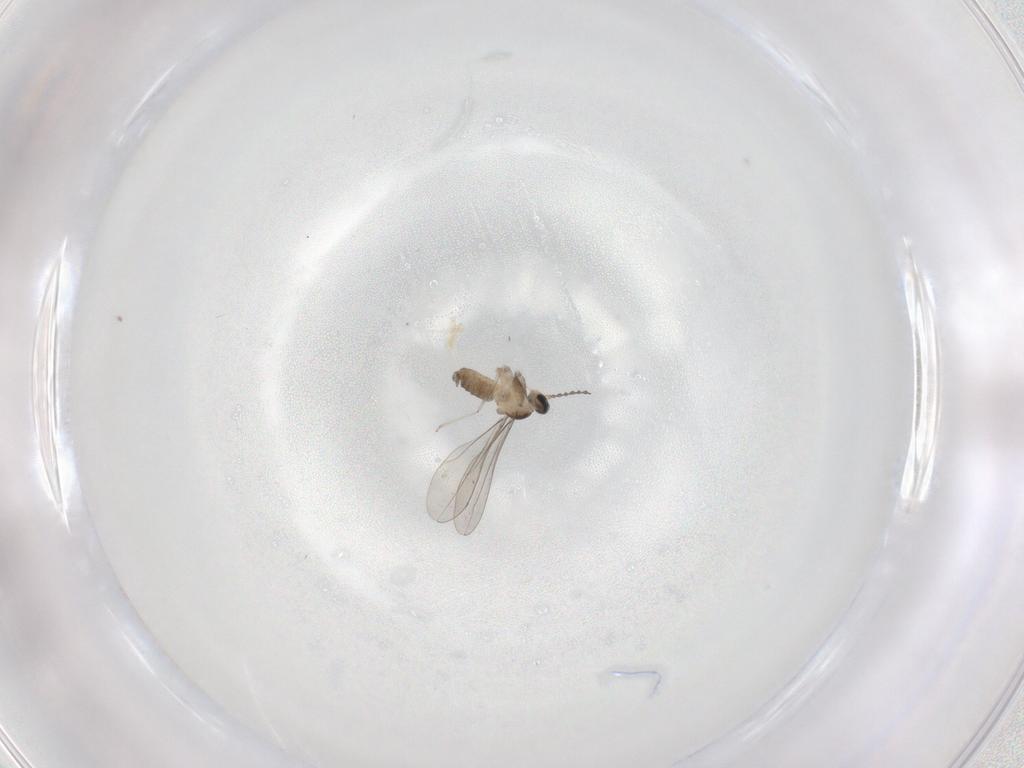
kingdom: Animalia
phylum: Arthropoda
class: Insecta
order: Diptera
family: Cecidomyiidae
